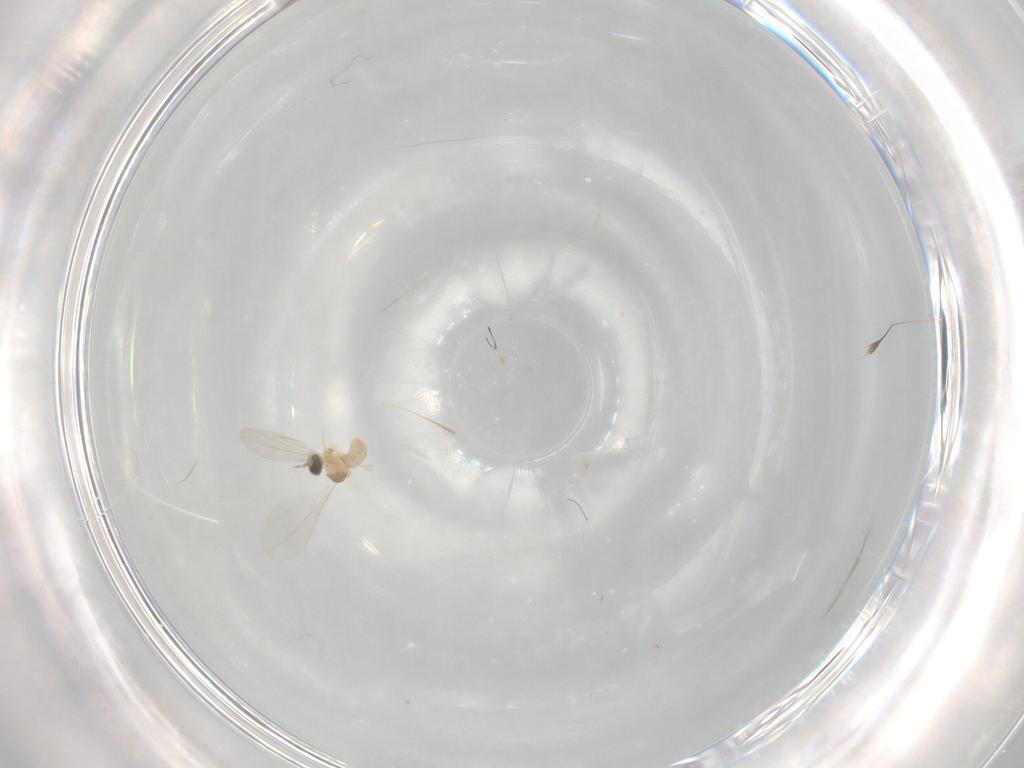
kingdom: Animalia
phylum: Arthropoda
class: Insecta
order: Diptera
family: Cecidomyiidae
